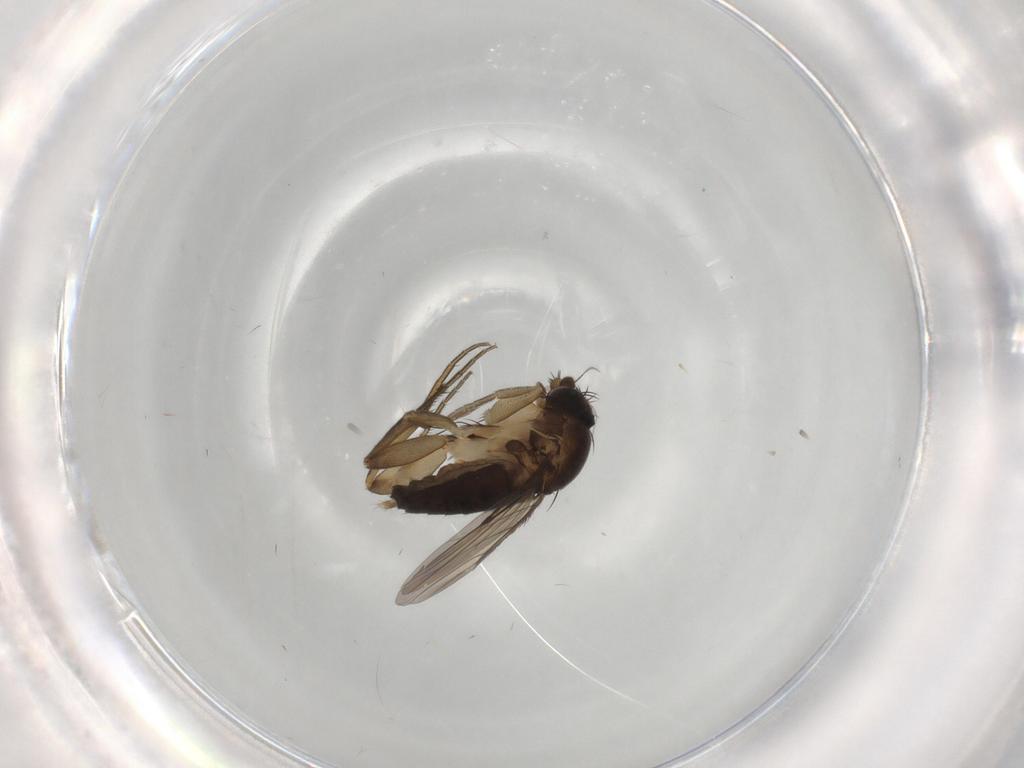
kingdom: Animalia
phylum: Arthropoda
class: Insecta
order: Diptera
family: Phoridae
